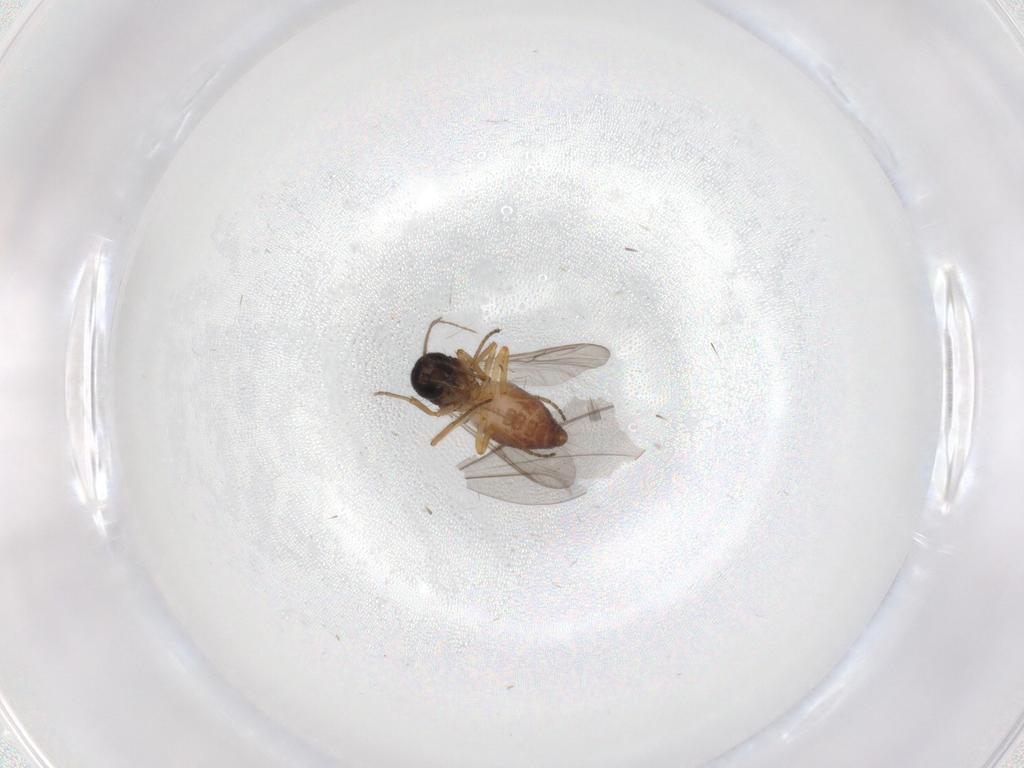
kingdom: Animalia
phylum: Arthropoda
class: Insecta
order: Diptera
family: Ceratopogonidae
